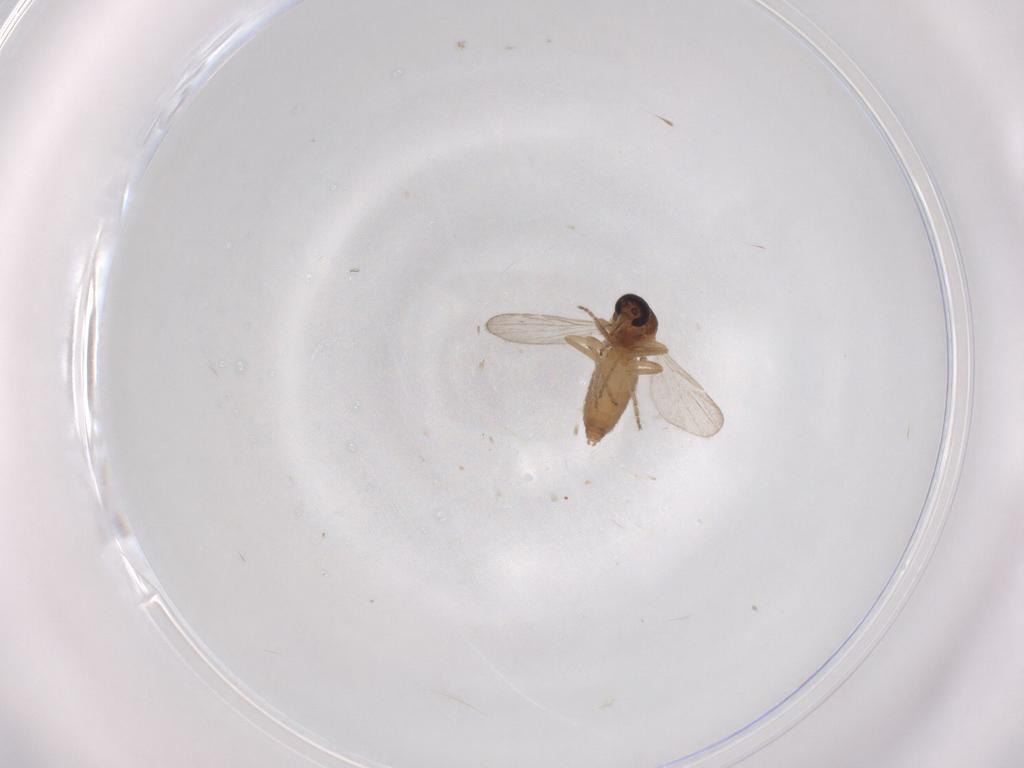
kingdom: Animalia
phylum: Arthropoda
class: Insecta
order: Diptera
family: Ceratopogonidae
